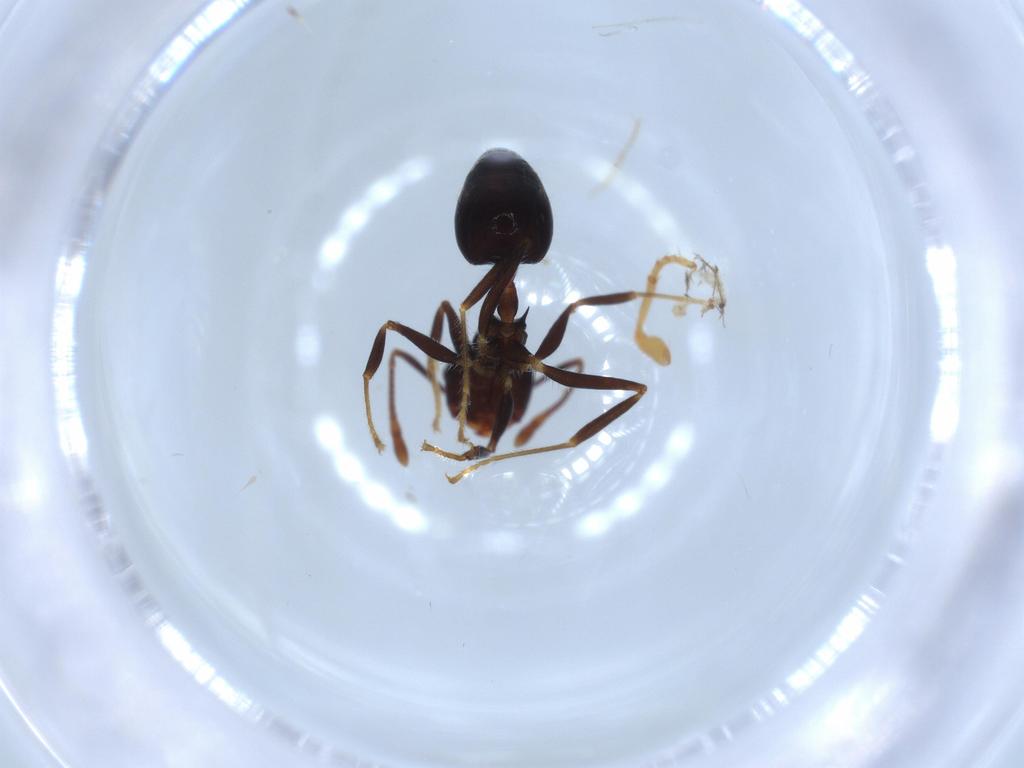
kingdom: Animalia
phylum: Arthropoda
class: Insecta
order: Hymenoptera
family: Formicidae
